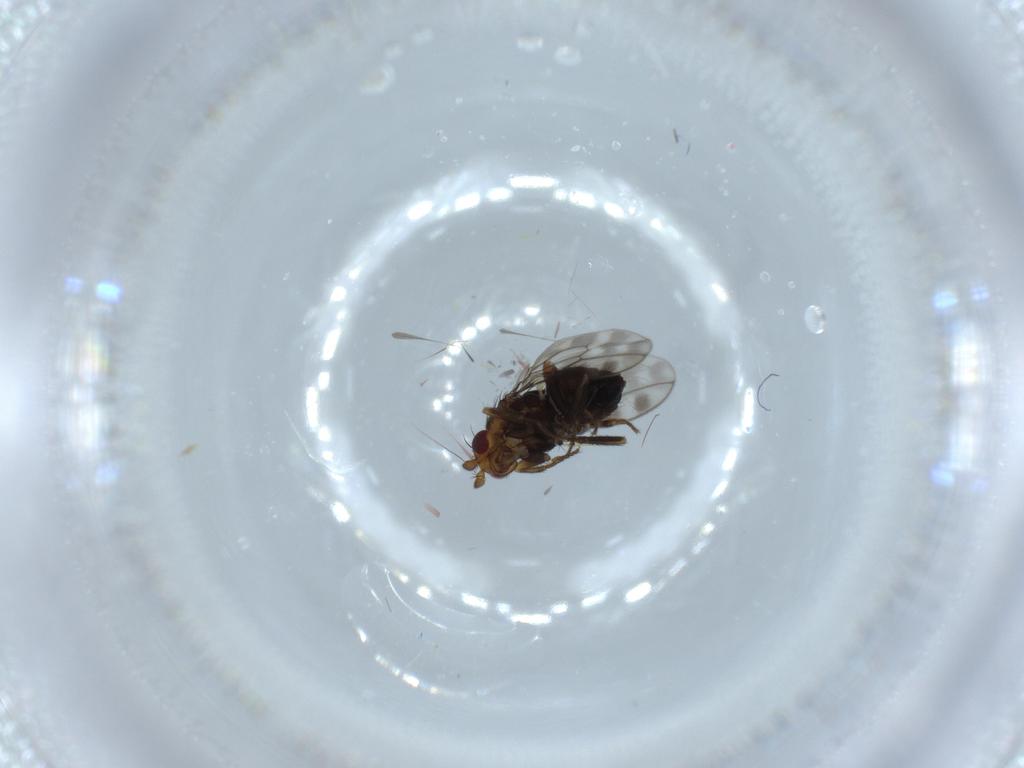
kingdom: Animalia
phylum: Arthropoda
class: Insecta
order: Diptera
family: Sphaeroceridae
